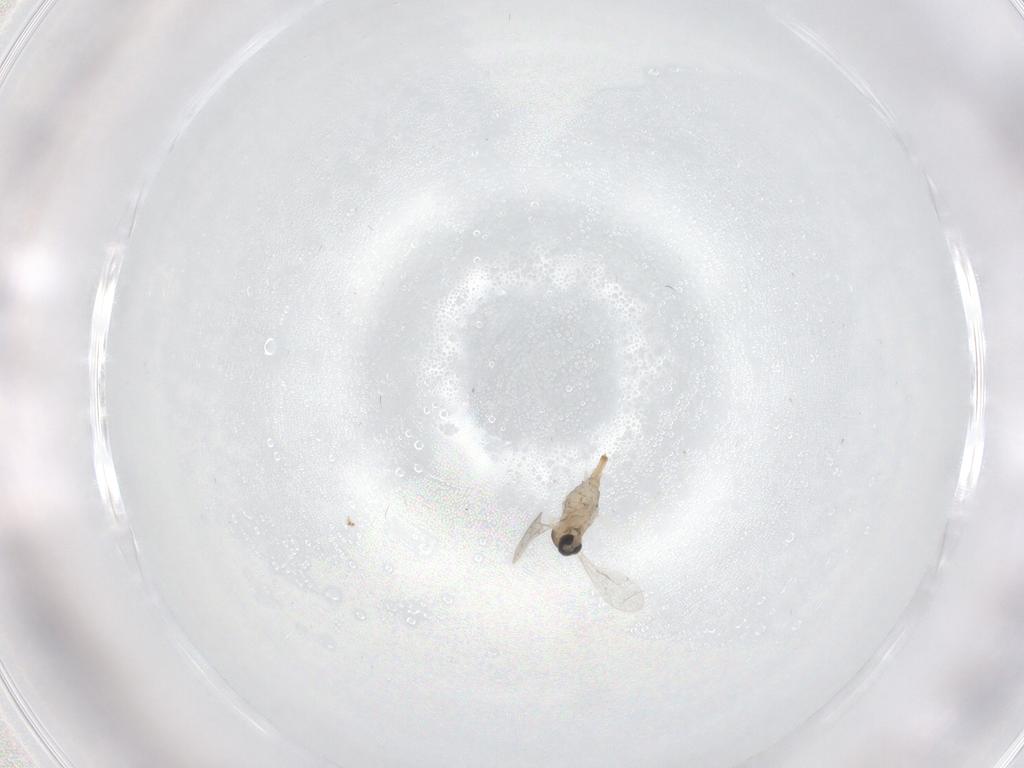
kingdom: Animalia
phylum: Arthropoda
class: Insecta
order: Diptera
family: Cecidomyiidae
